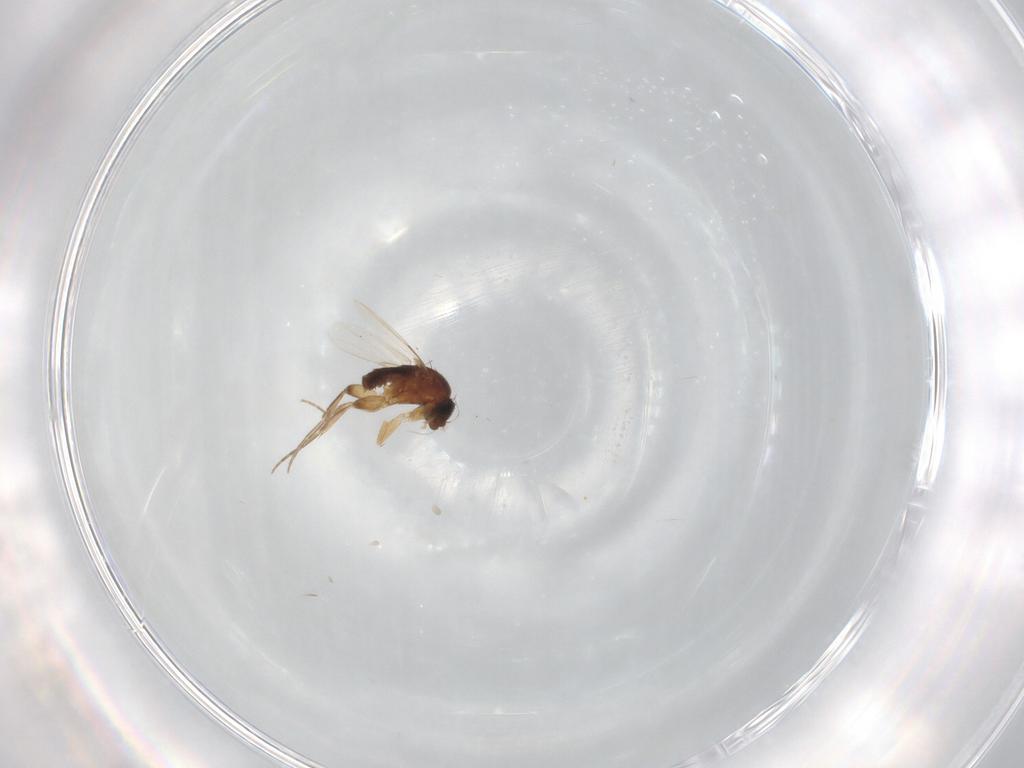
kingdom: Animalia
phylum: Arthropoda
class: Insecta
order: Diptera
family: Phoridae
